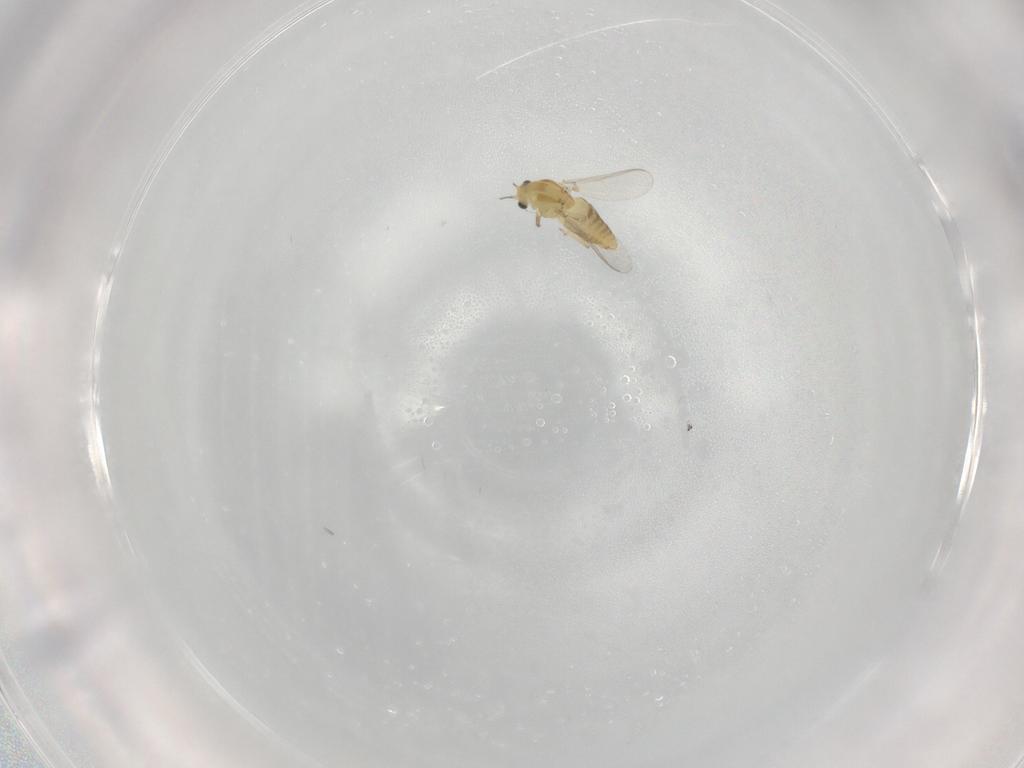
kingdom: Animalia
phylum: Arthropoda
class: Insecta
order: Diptera
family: Chironomidae
